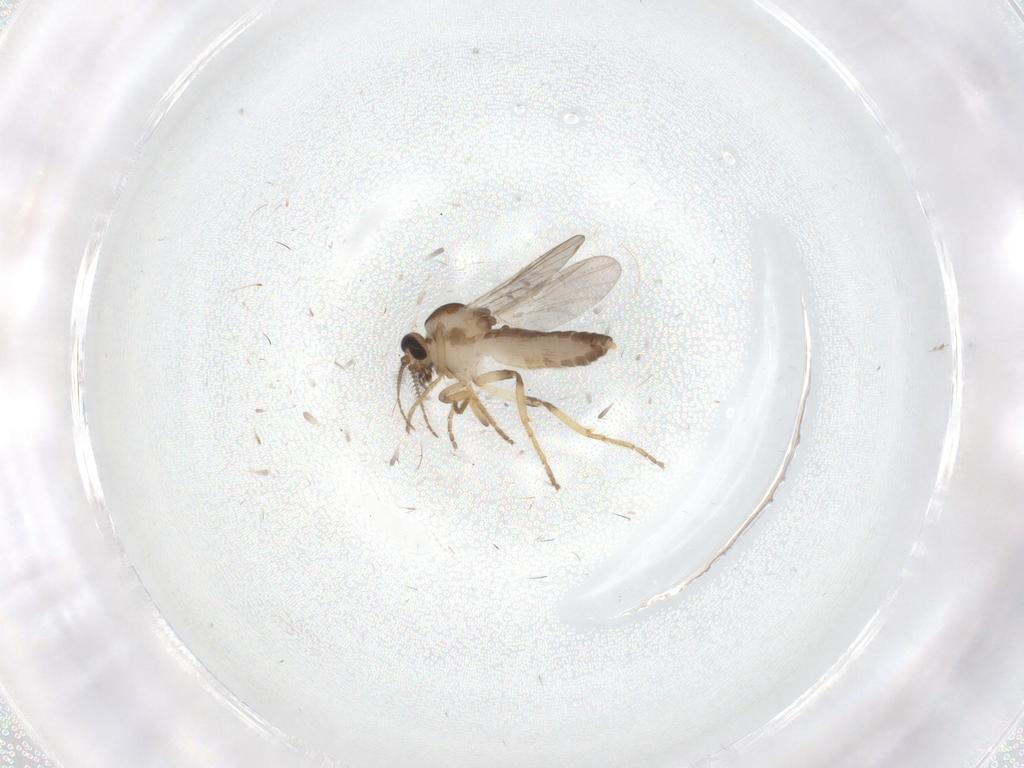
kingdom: Animalia
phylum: Arthropoda
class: Insecta
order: Diptera
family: Ceratopogonidae
